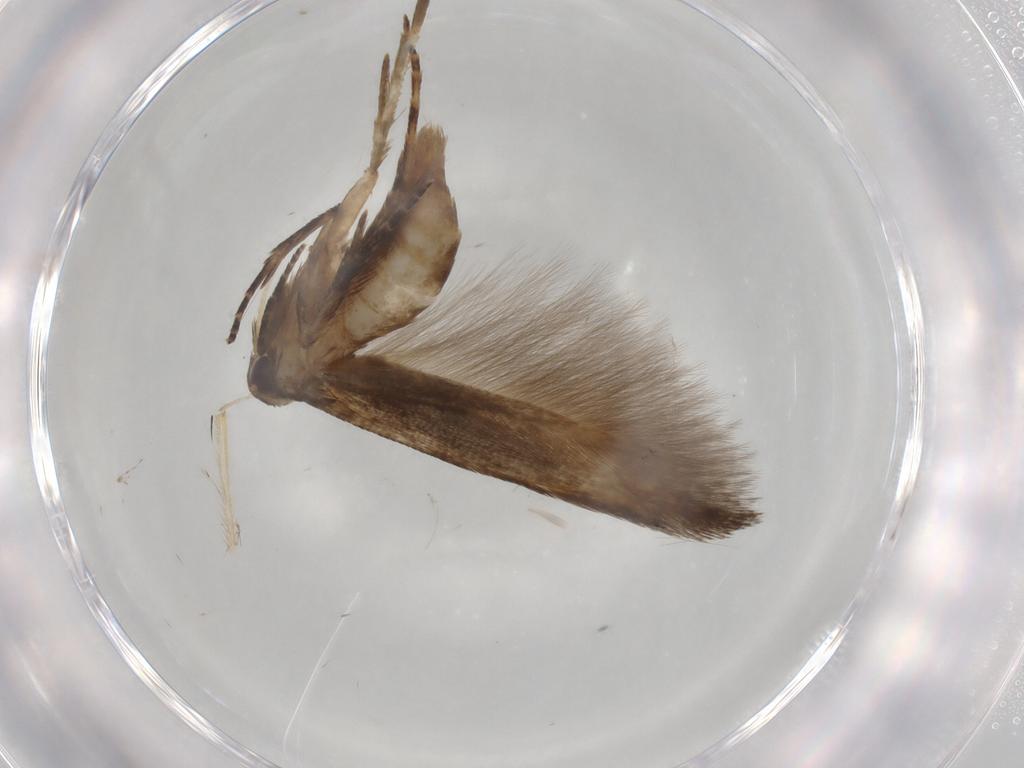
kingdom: Animalia
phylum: Arthropoda
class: Insecta
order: Lepidoptera
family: Cosmopterigidae
